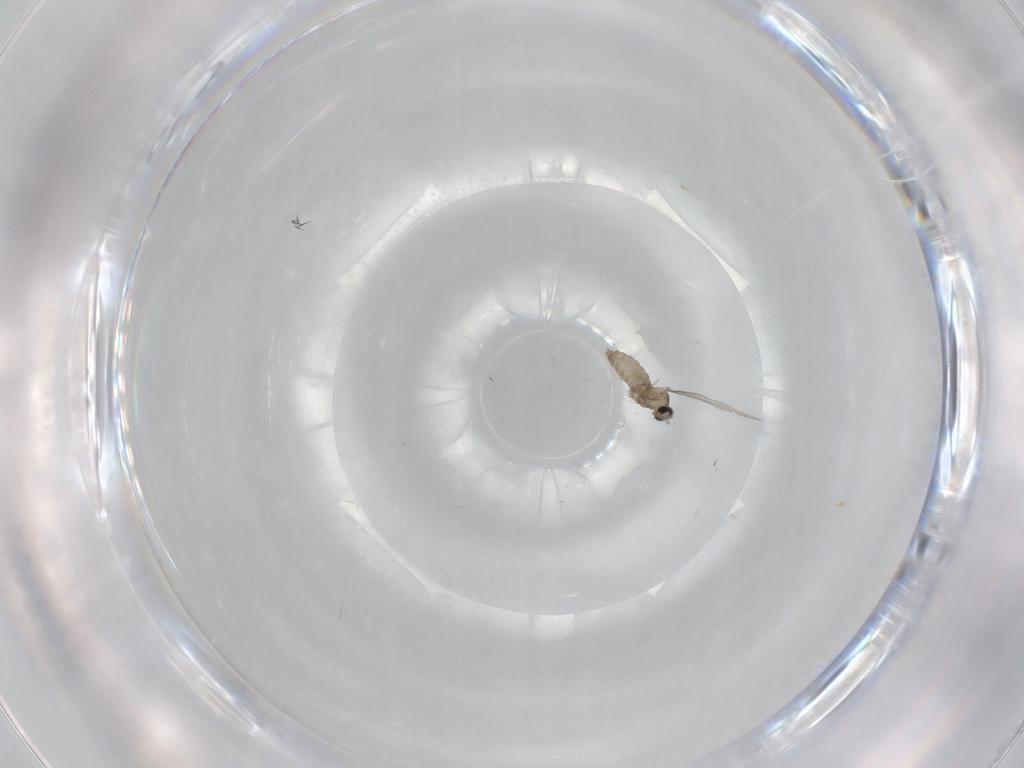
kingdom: Animalia
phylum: Arthropoda
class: Insecta
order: Diptera
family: Cecidomyiidae
